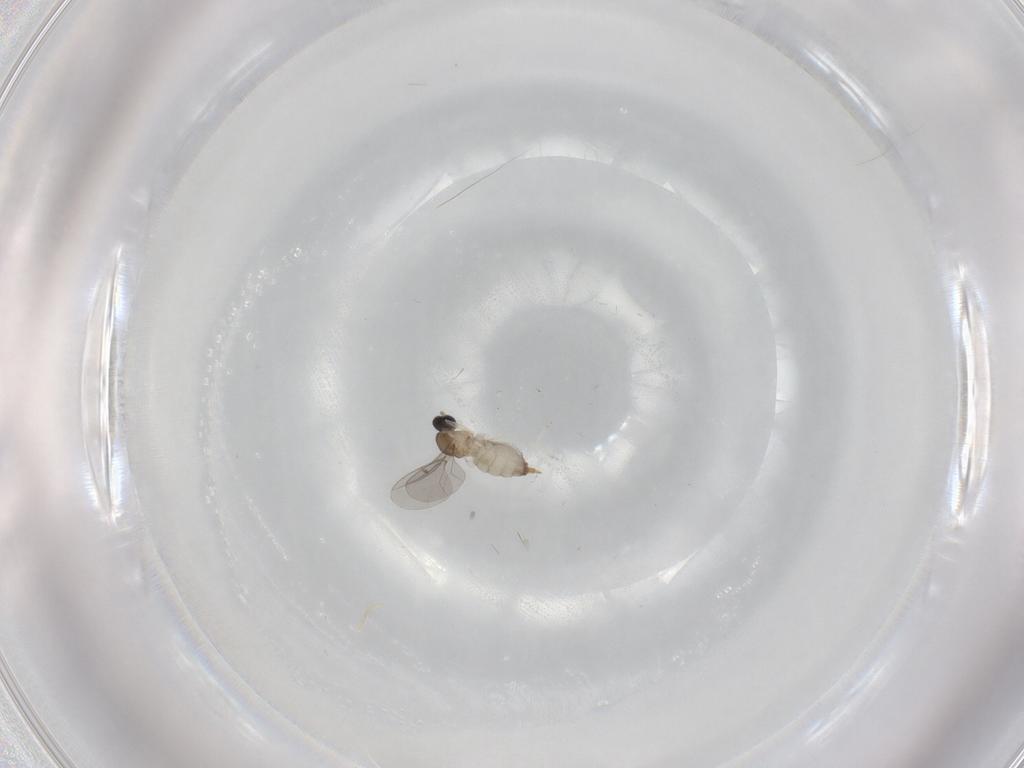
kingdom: Animalia
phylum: Arthropoda
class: Insecta
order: Diptera
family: Cecidomyiidae
